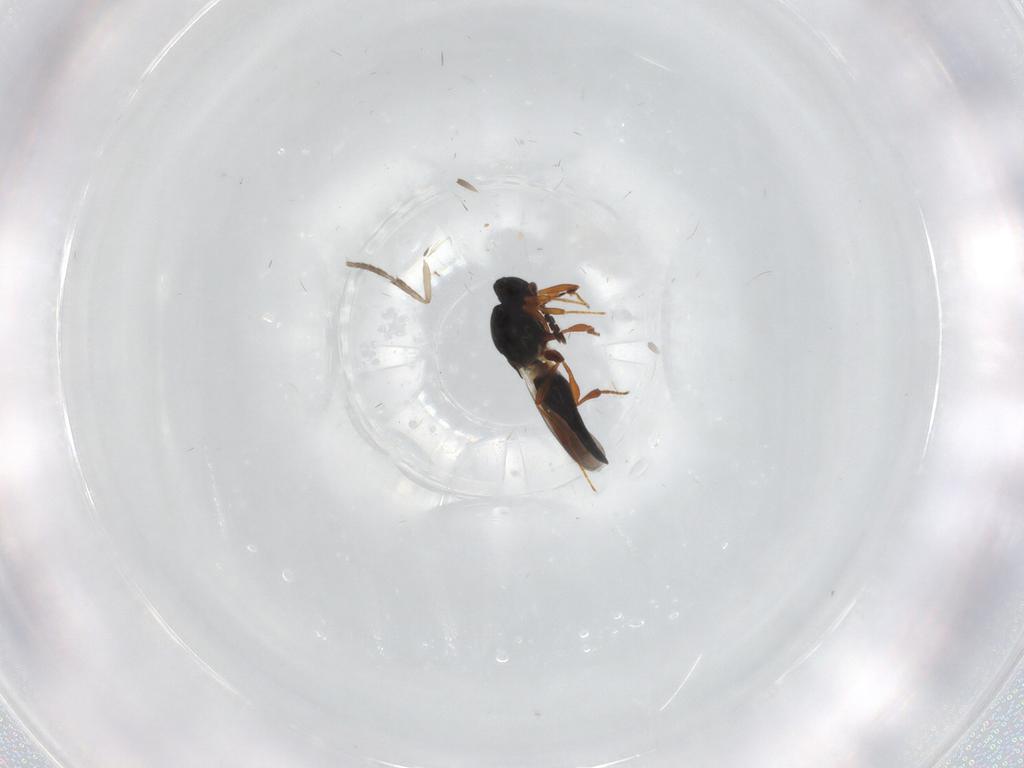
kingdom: Animalia
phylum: Arthropoda
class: Insecta
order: Hymenoptera
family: Platygastridae
